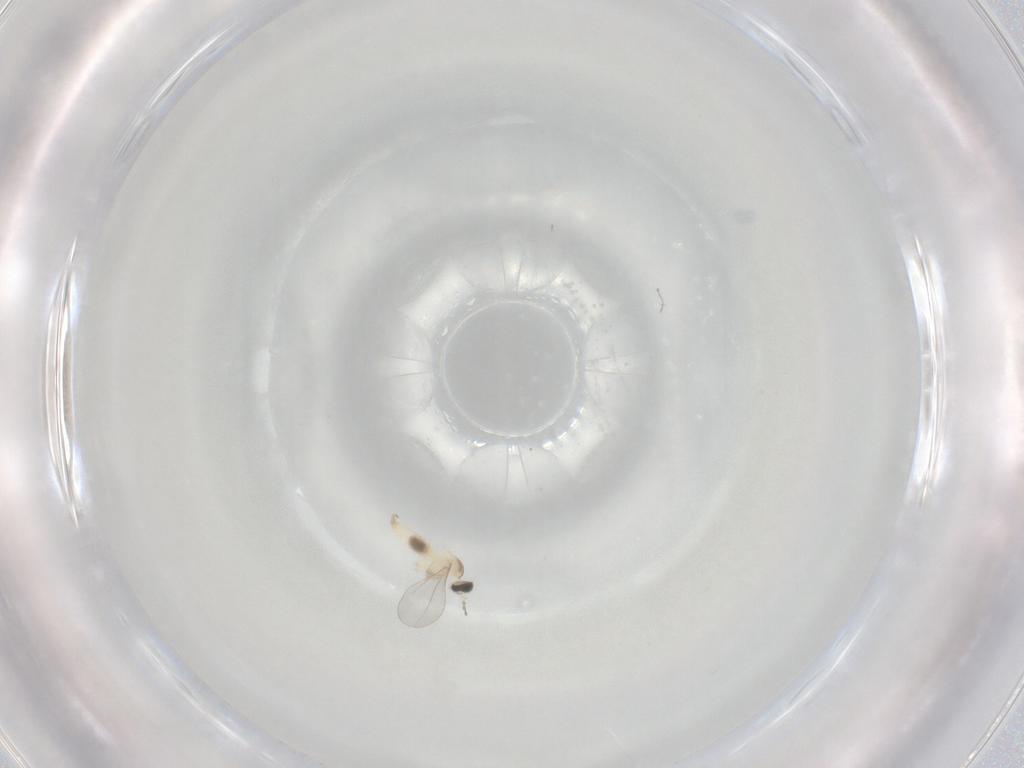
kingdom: Animalia
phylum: Arthropoda
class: Insecta
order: Diptera
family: Cecidomyiidae
